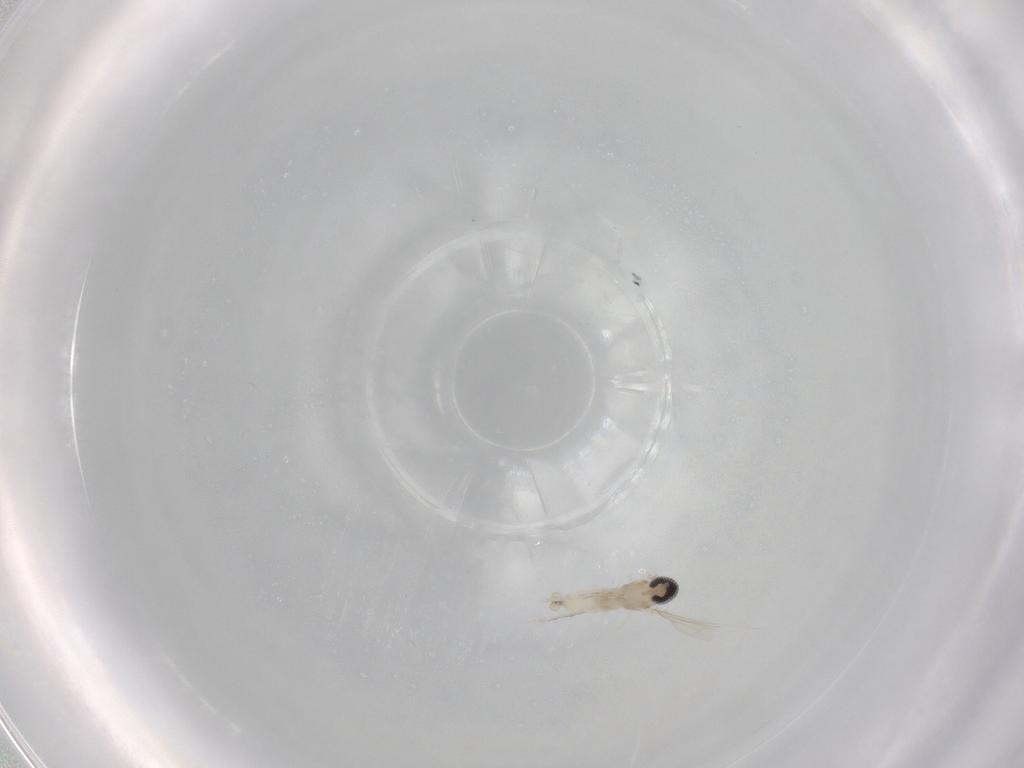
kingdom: Animalia
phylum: Arthropoda
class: Insecta
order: Diptera
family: Cecidomyiidae
